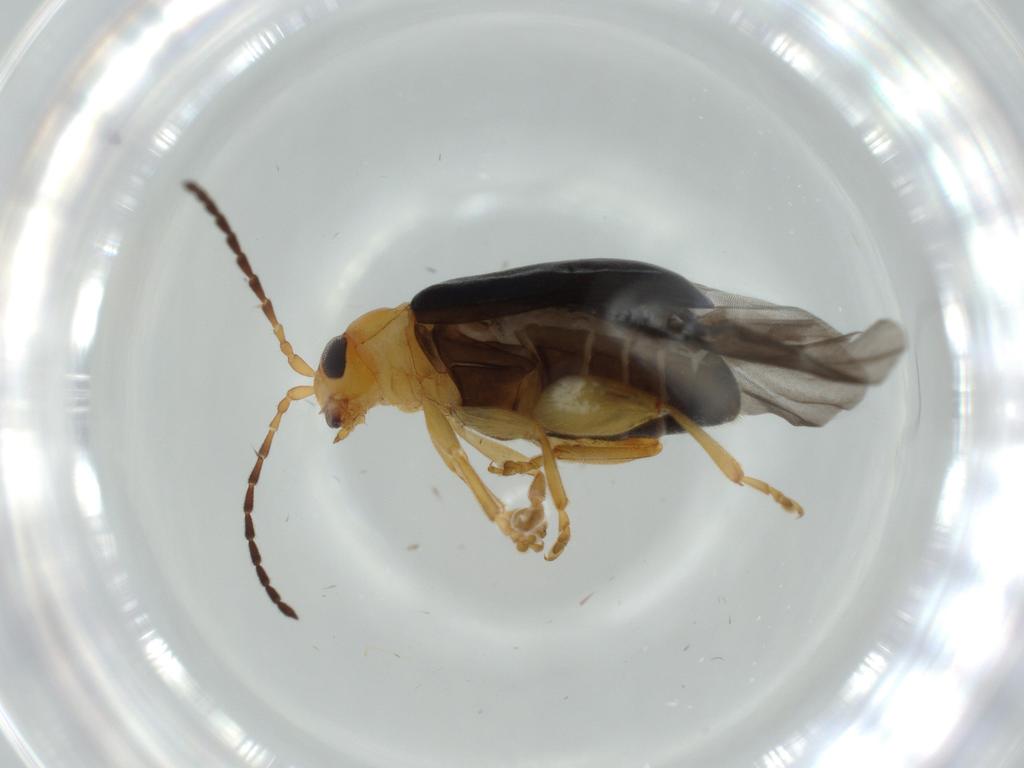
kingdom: Animalia
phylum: Arthropoda
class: Insecta
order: Coleoptera
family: Chrysomelidae
